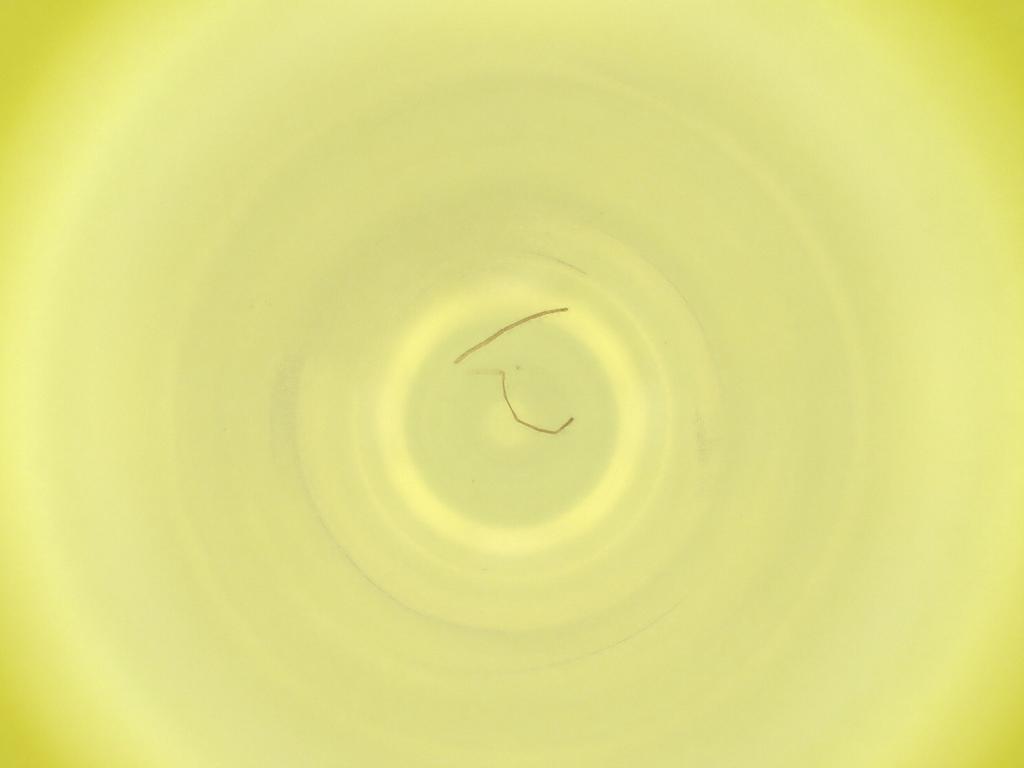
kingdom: Animalia
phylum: Arthropoda
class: Insecta
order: Diptera
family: Cecidomyiidae
